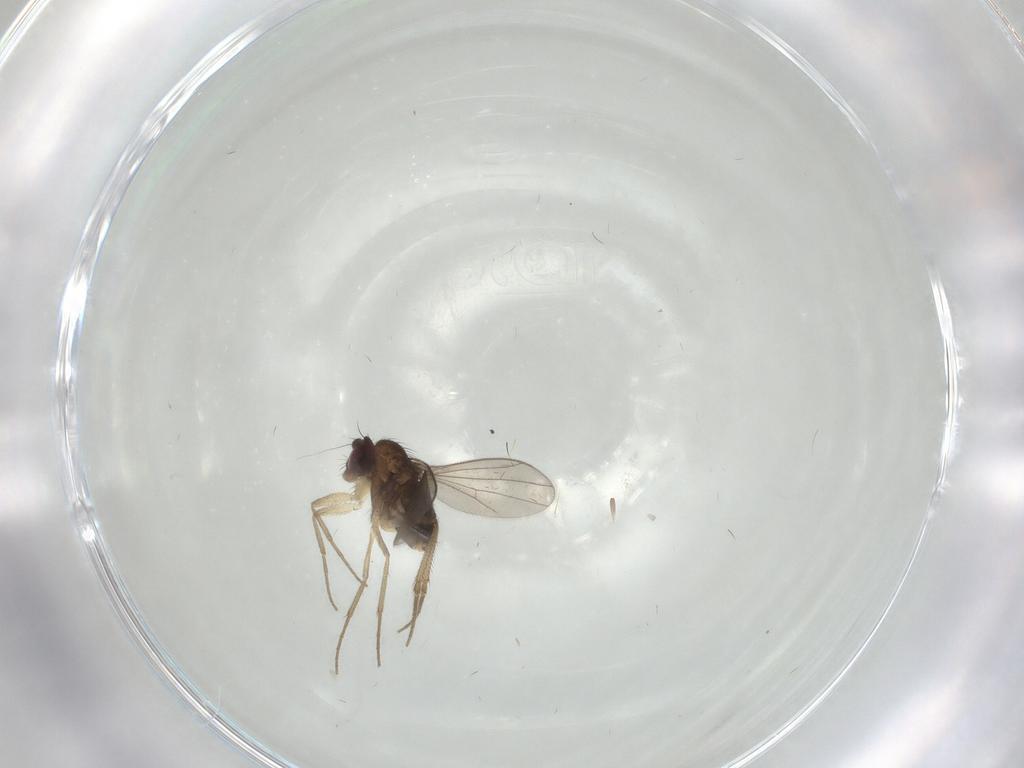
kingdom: Animalia
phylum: Arthropoda
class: Insecta
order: Diptera
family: Dolichopodidae
